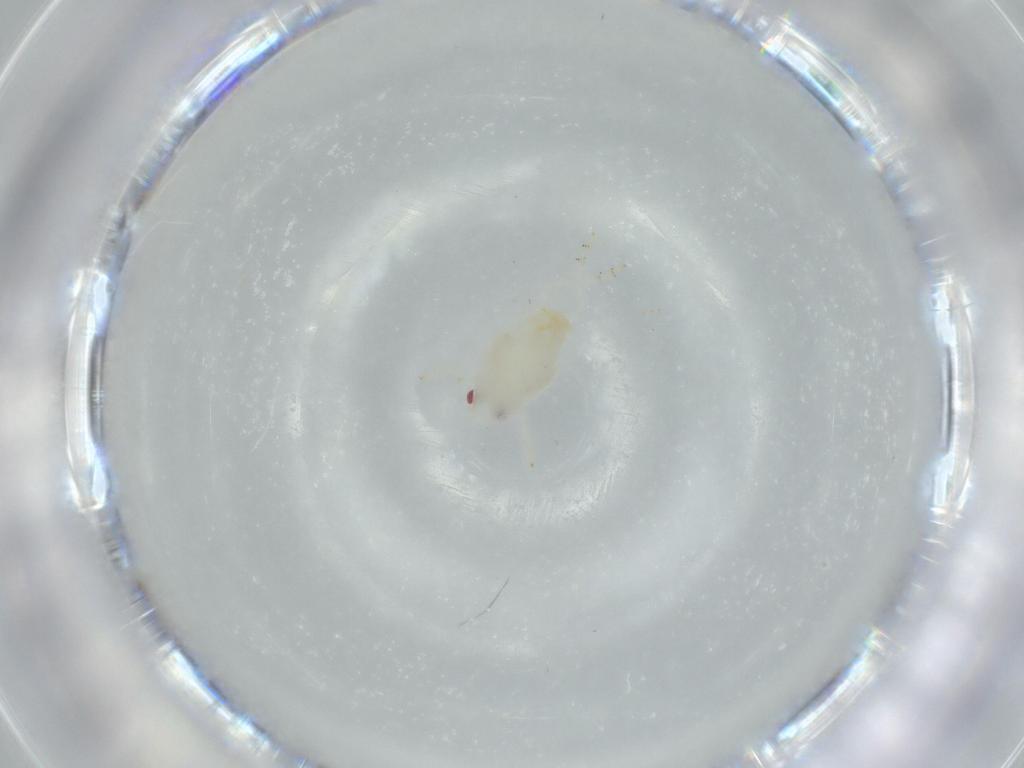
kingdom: Animalia
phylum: Arthropoda
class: Insecta
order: Hemiptera
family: Flatidae
